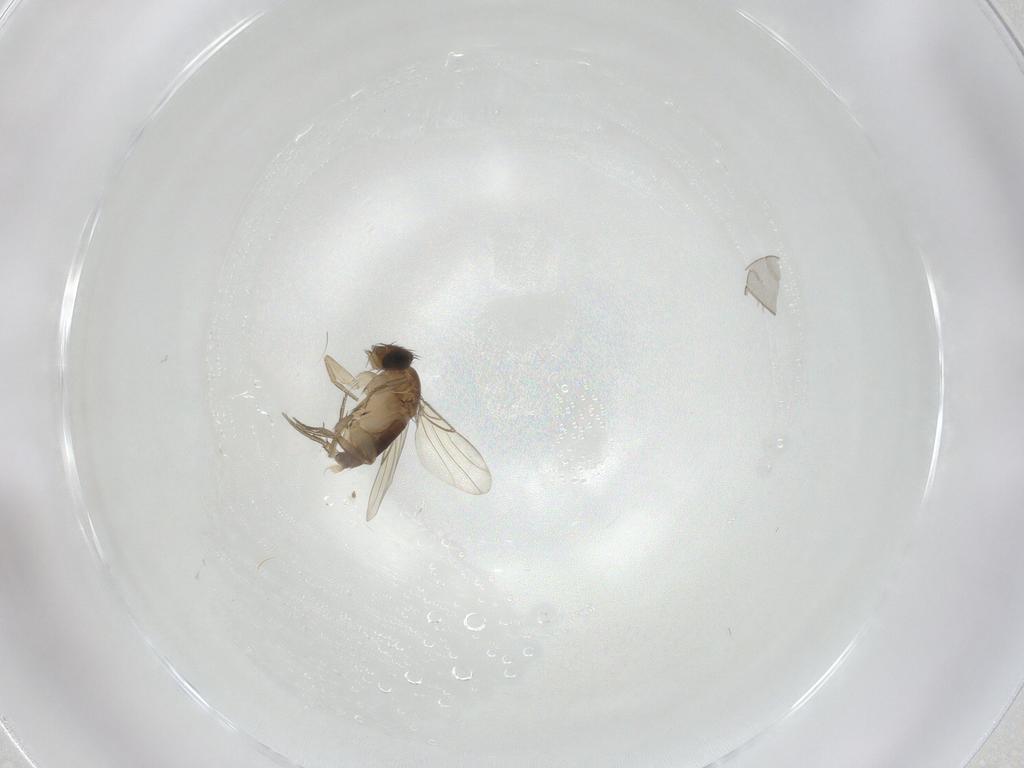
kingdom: Animalia
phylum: Arthropoda
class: Insecta
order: Diptera
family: Phoridae
